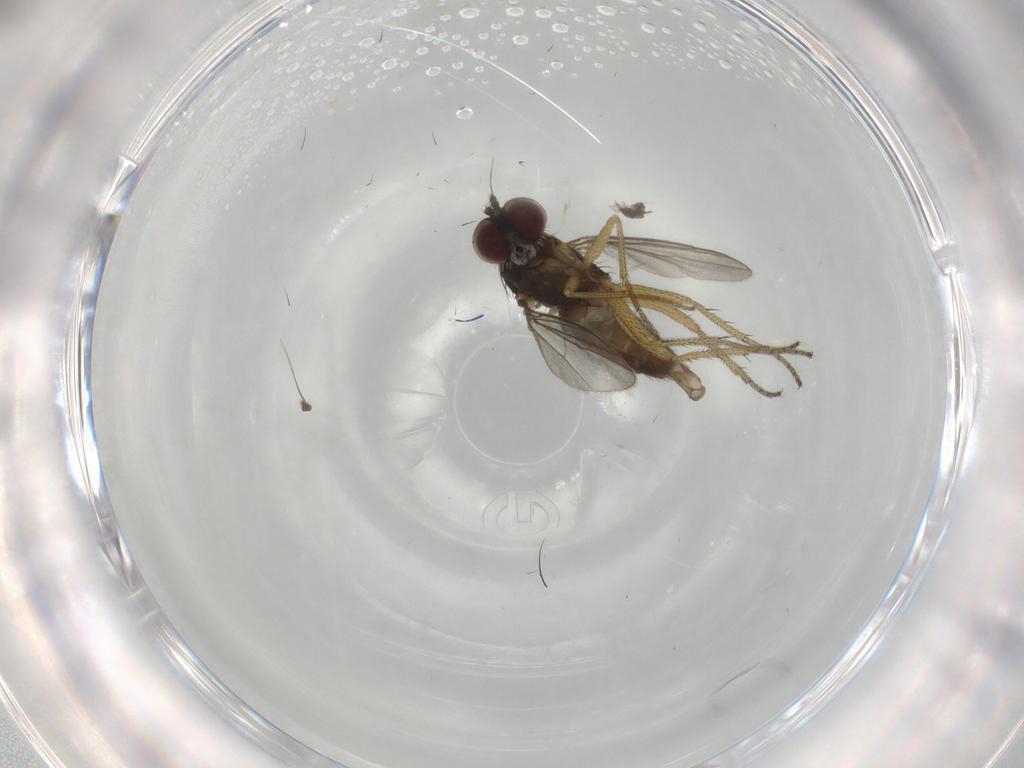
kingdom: Animalia
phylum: Arthropoda
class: Insecta
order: Diptera
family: Dolichopodidae
